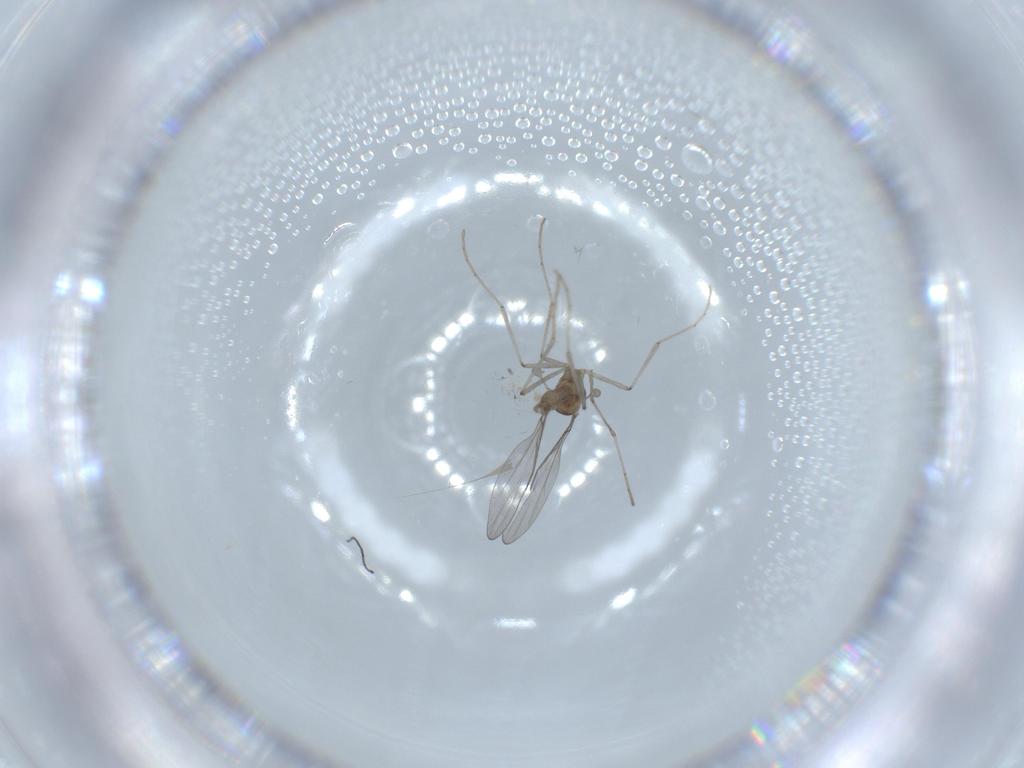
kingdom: Animalia
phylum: Arthropoda
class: Insecta
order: Diptera
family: Cecidomyiidae
